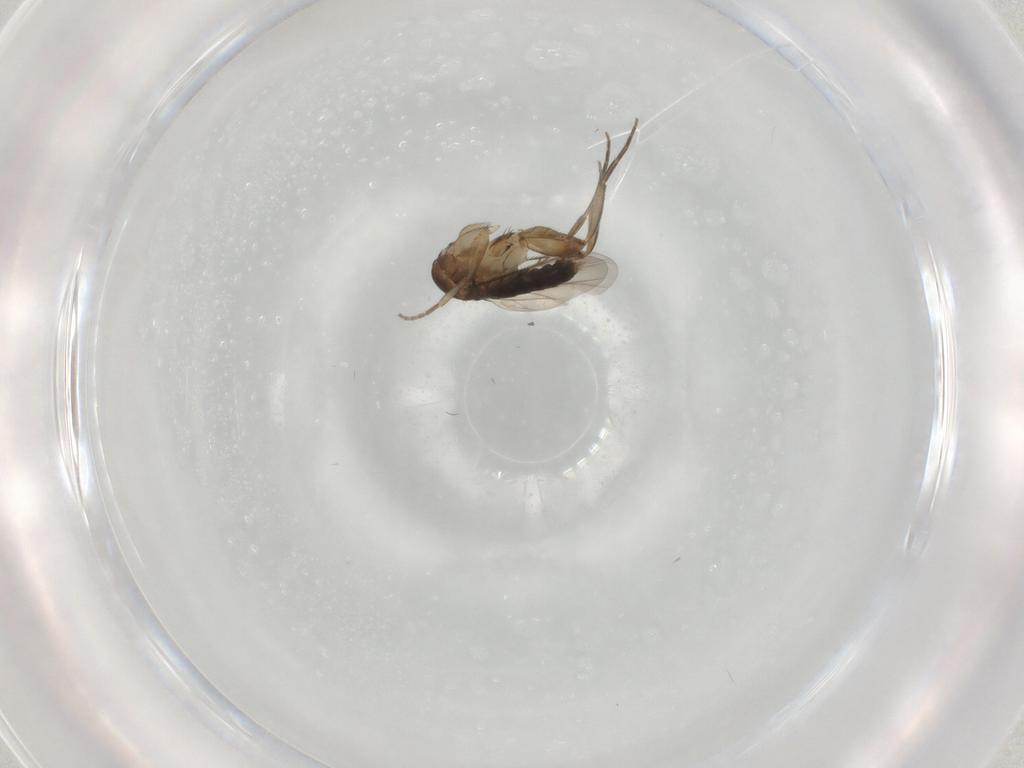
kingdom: Animalia
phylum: Arthropoda
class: Insecta
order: Diptera
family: Phoridae
